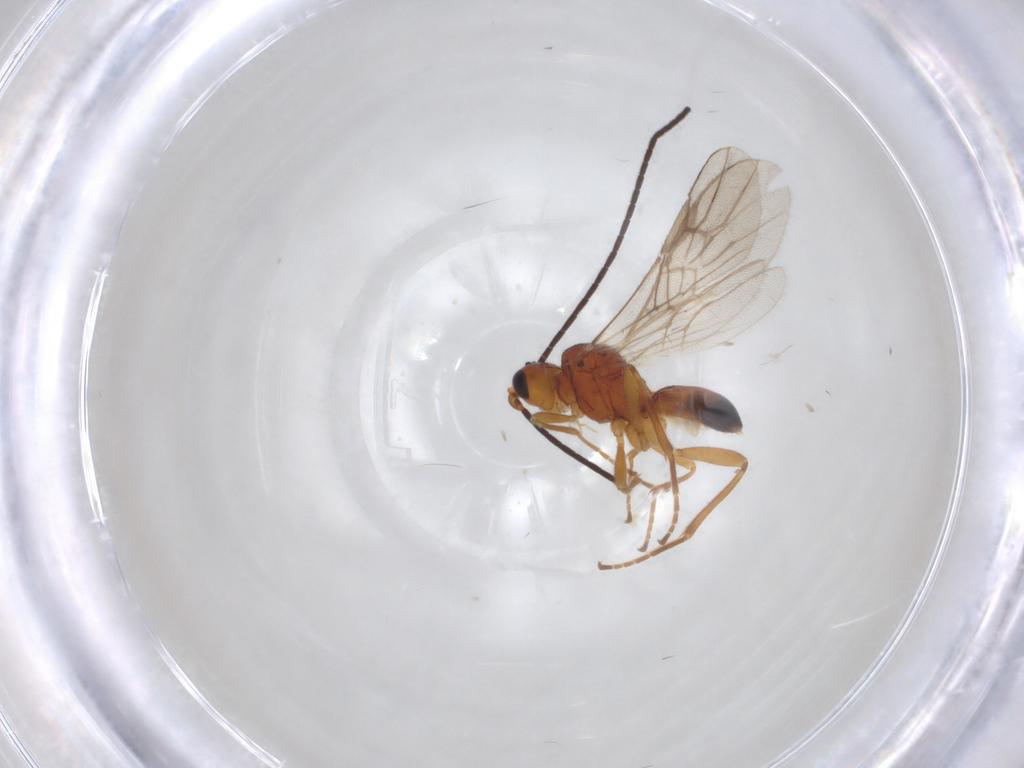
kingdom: Animalia
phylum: Arthropoda
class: Insecta
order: Hymenoptera
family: Braconidae
